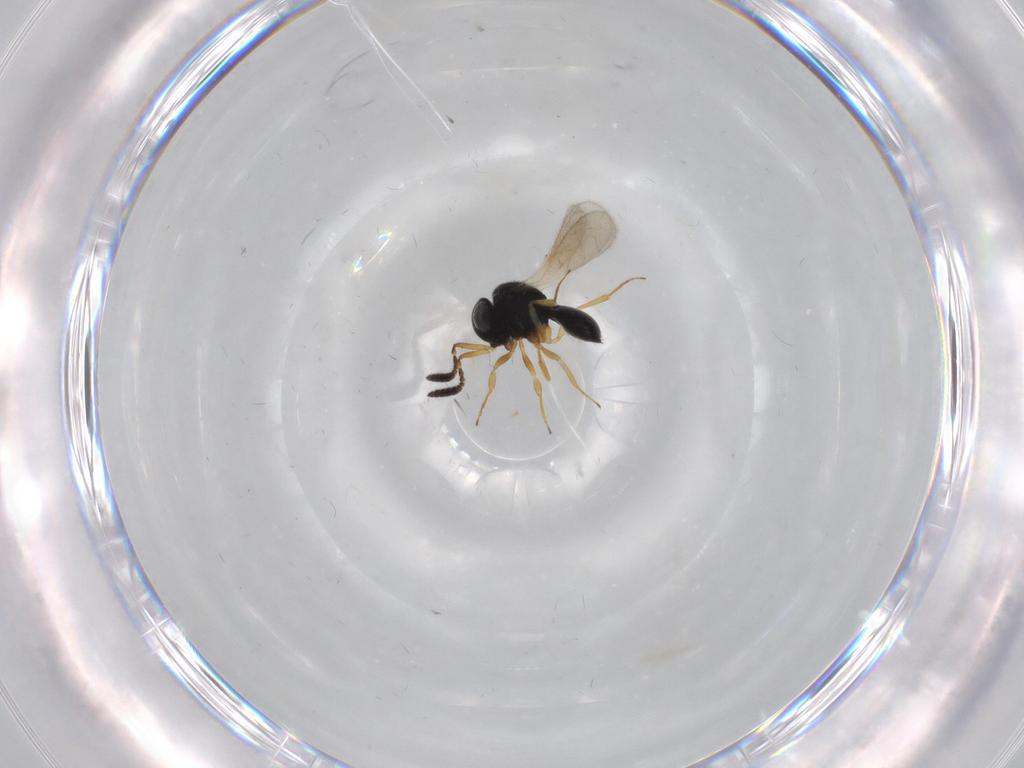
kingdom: Animalia
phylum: Arthropoda
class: Insecta
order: Hymenoptera
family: Scelionidae
